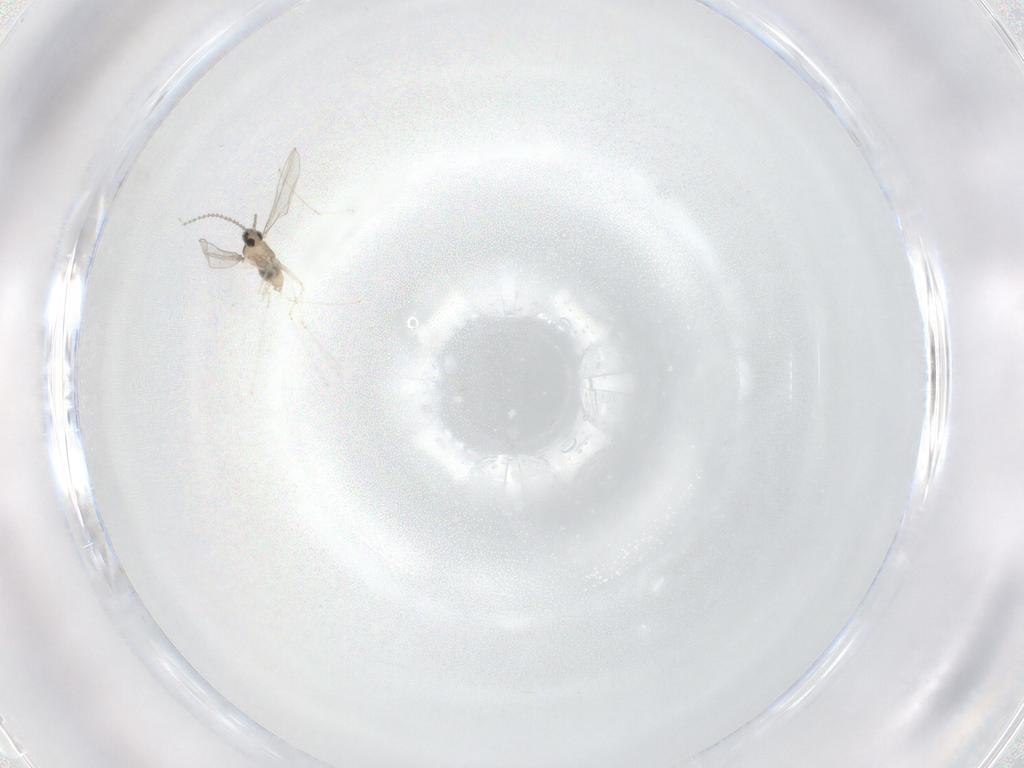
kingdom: Animalia
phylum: Arthropoda
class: Insecta
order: Diptera
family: Cecidomyiidae
